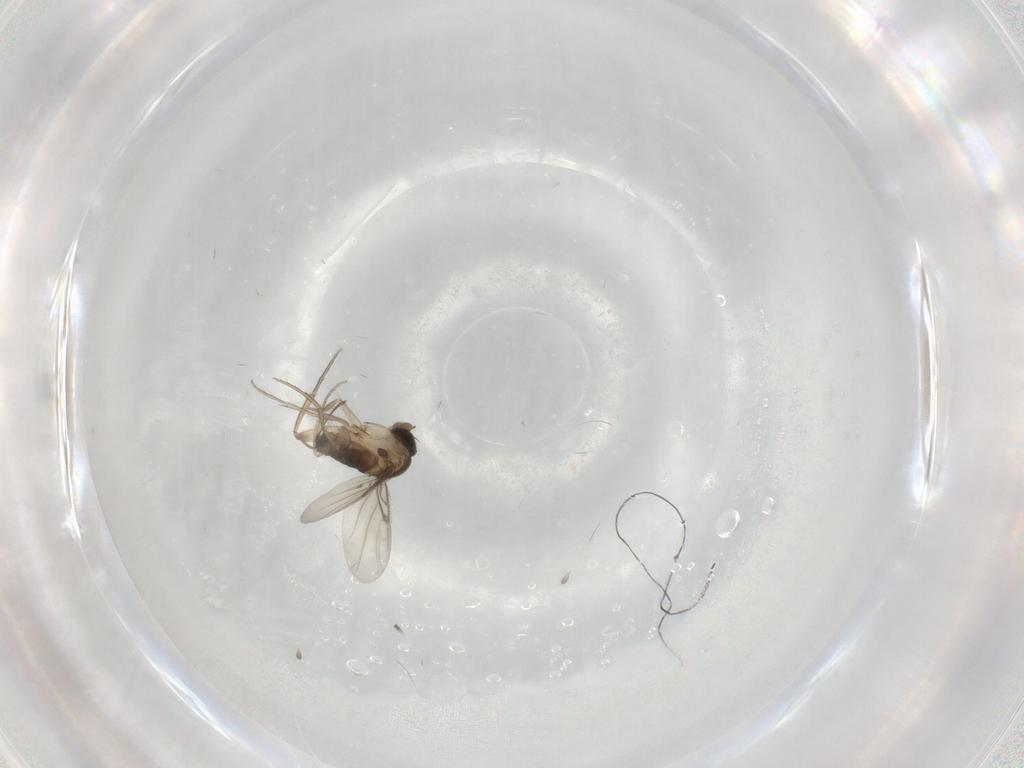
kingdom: Animalia
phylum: Arthropoda
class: Insecta
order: Diptera
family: Phoridae
